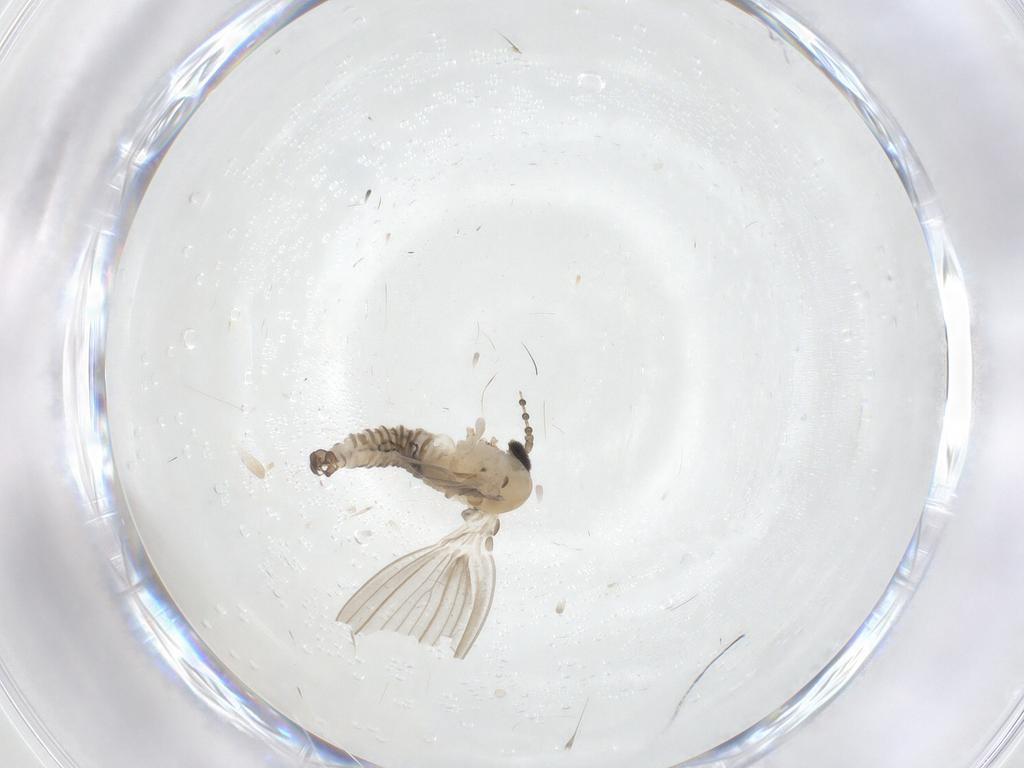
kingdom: Animalia
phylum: Arthropoda
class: Insecta
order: Diptera
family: Psychodidae
